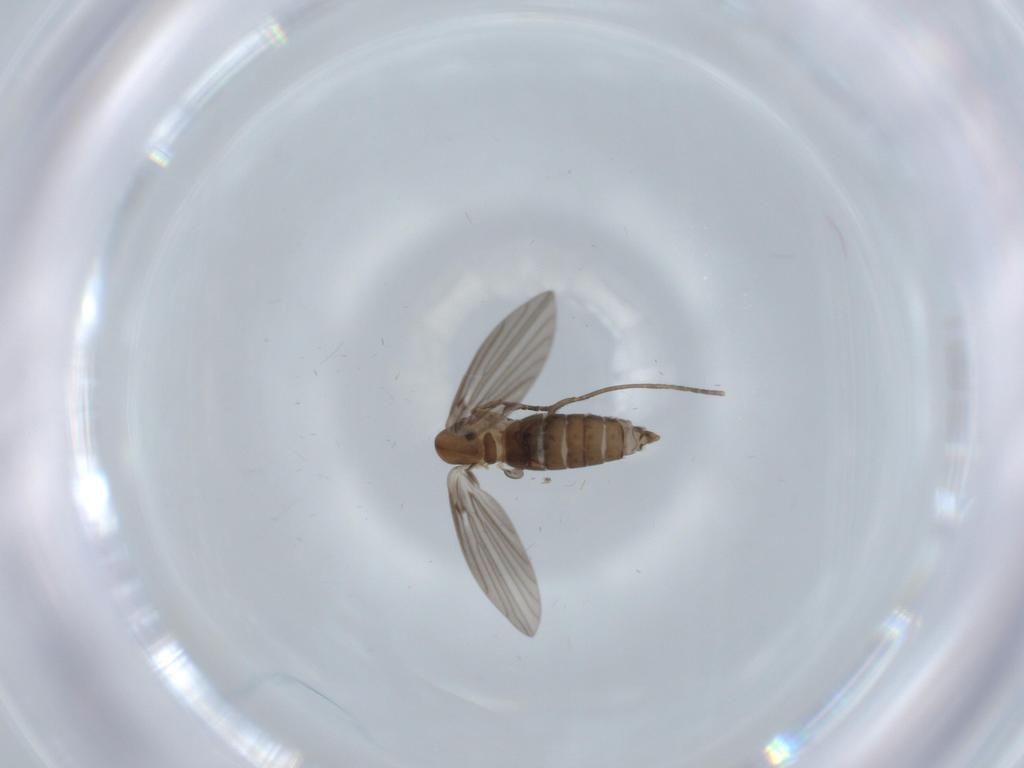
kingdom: Animalia
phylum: Arthropoda
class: Insecta
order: Diptera
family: Psychodidae
